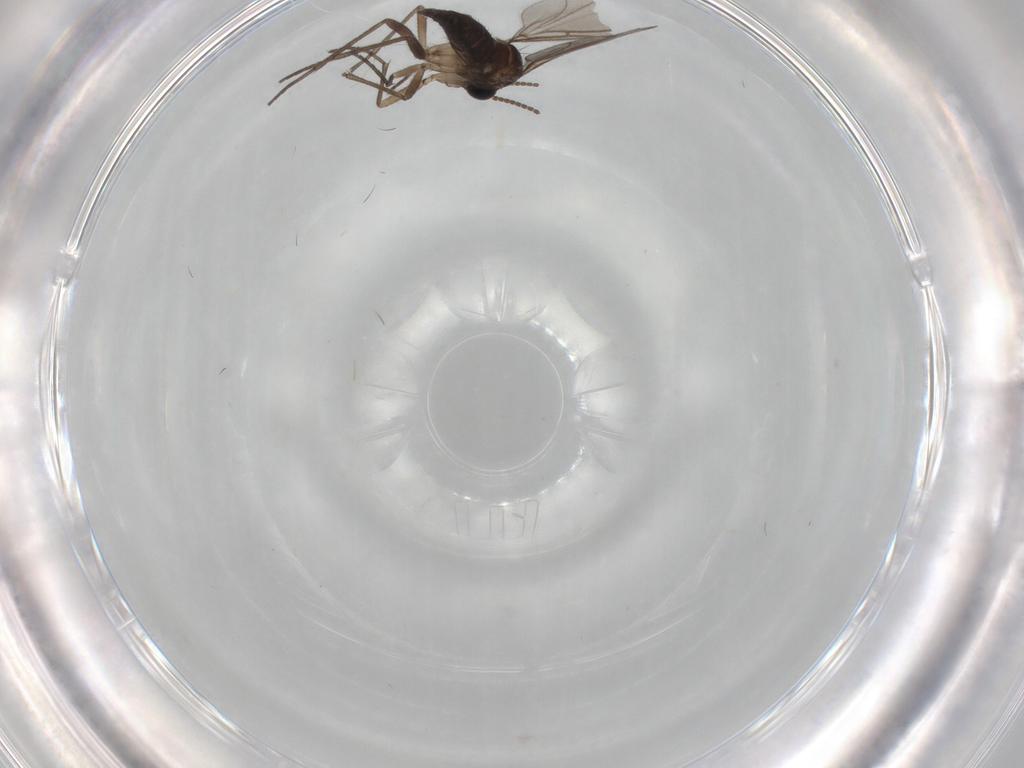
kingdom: Animalia
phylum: Arthropoda
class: Insecta
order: Diptera
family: Sciaridae
